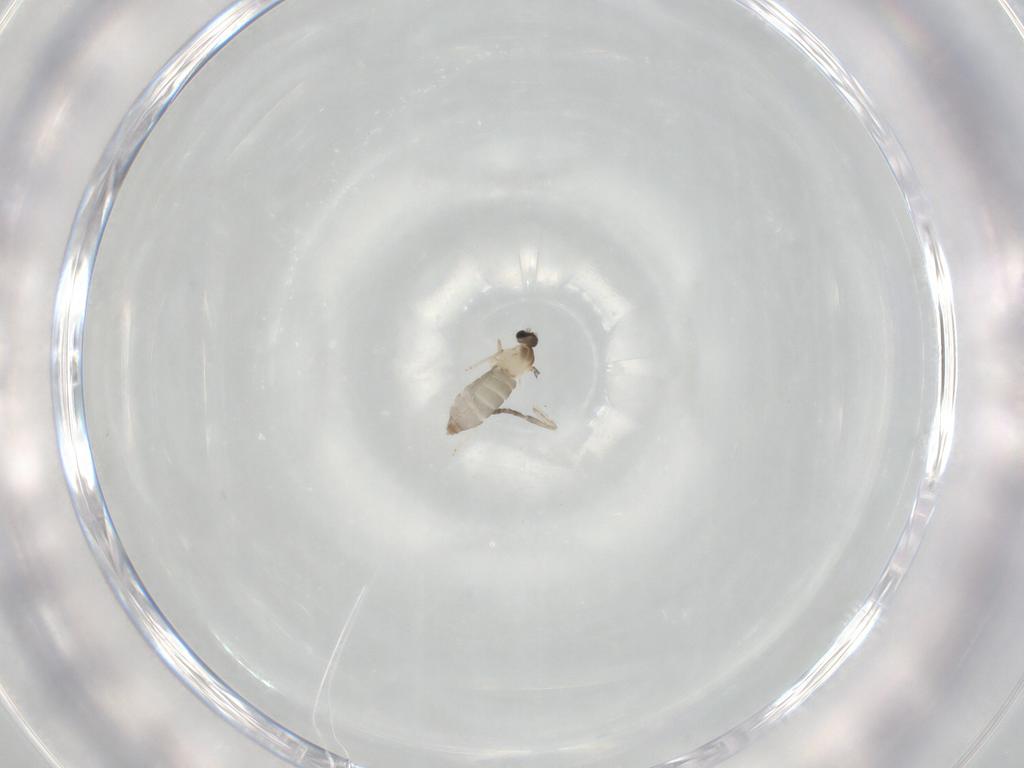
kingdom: Animalia
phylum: Arthropoda
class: Insecta
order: Diptera
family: Cecidomyiidae
